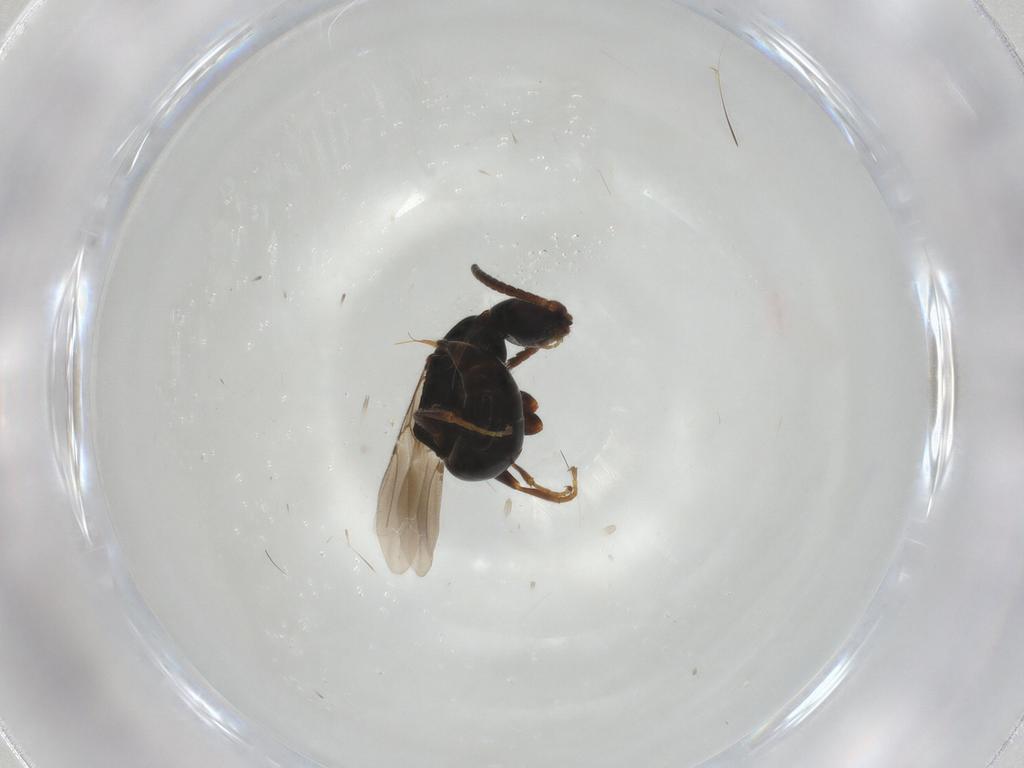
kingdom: Animalia
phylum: Arthropoda
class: Insecta
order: Hymenoptera
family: Bethylidae
